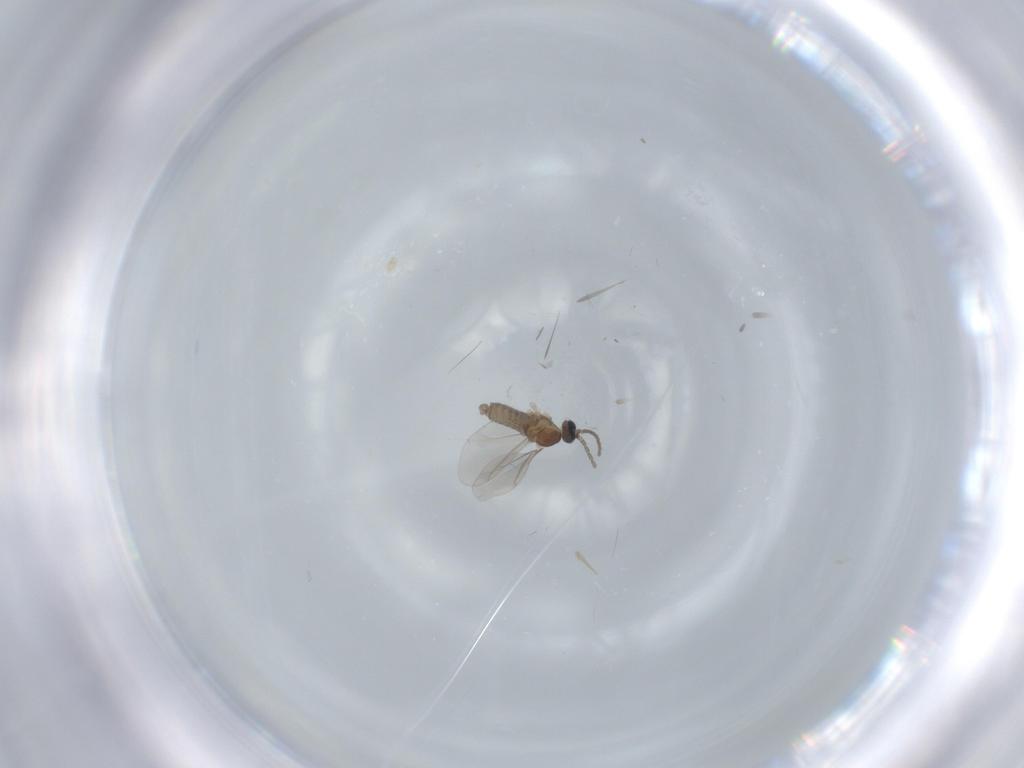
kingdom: Animalia
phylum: Arthropoda
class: Insecta
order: Diptera
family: Cecidomyiidae
